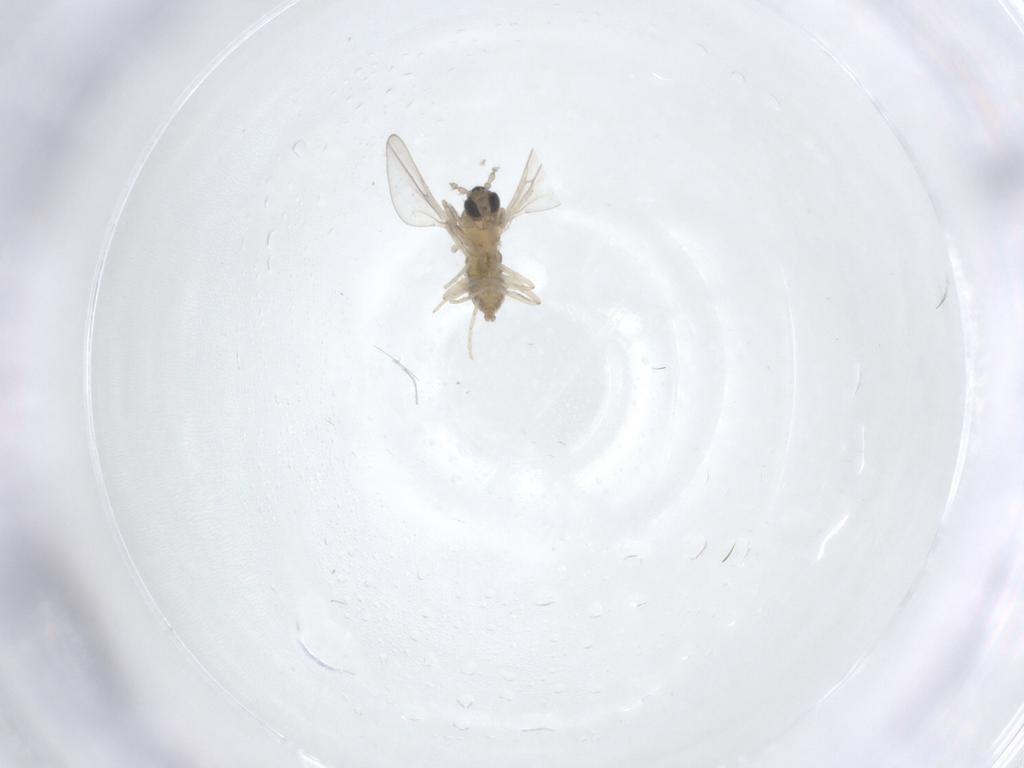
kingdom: Animalia
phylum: Arthropoda
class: Insecta
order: Diptera
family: Cecidomyiidae
